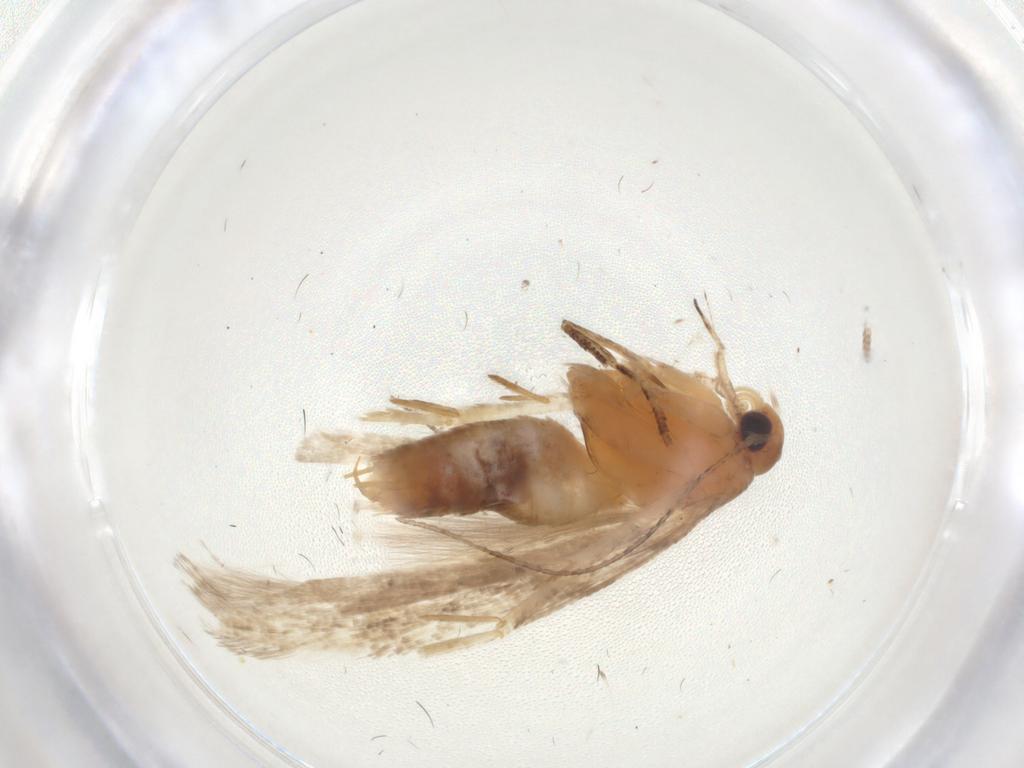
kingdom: Animalia
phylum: Arthropoda
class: Insecta
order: Lepidoptera
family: Gelechiidae
